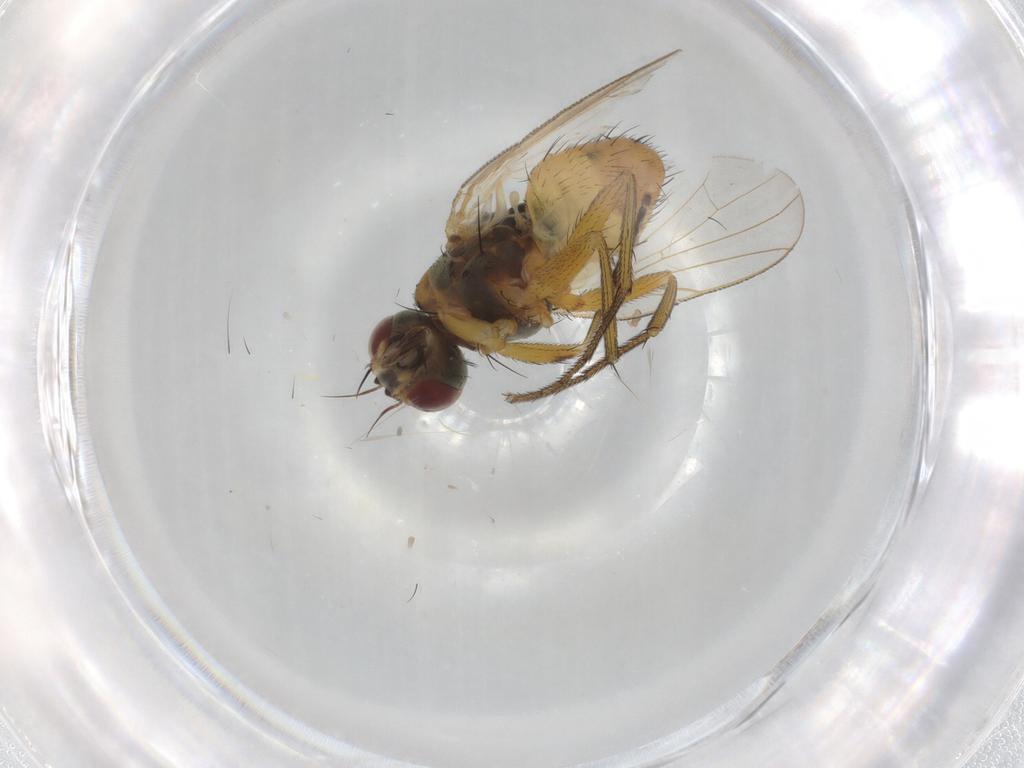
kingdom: Animalia
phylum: Arthropoda
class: Insecta
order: Diptera
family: Muscidae
